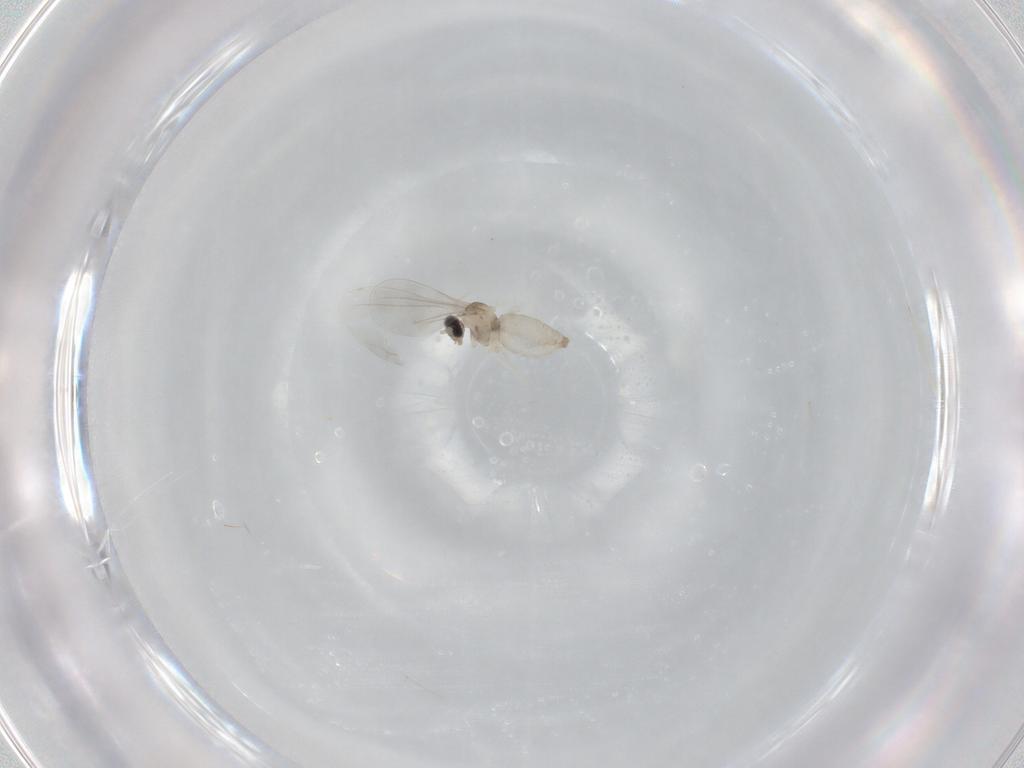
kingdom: Animalia
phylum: Arthropoda
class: Insecta
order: Diptera
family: Cecidomyiidae
